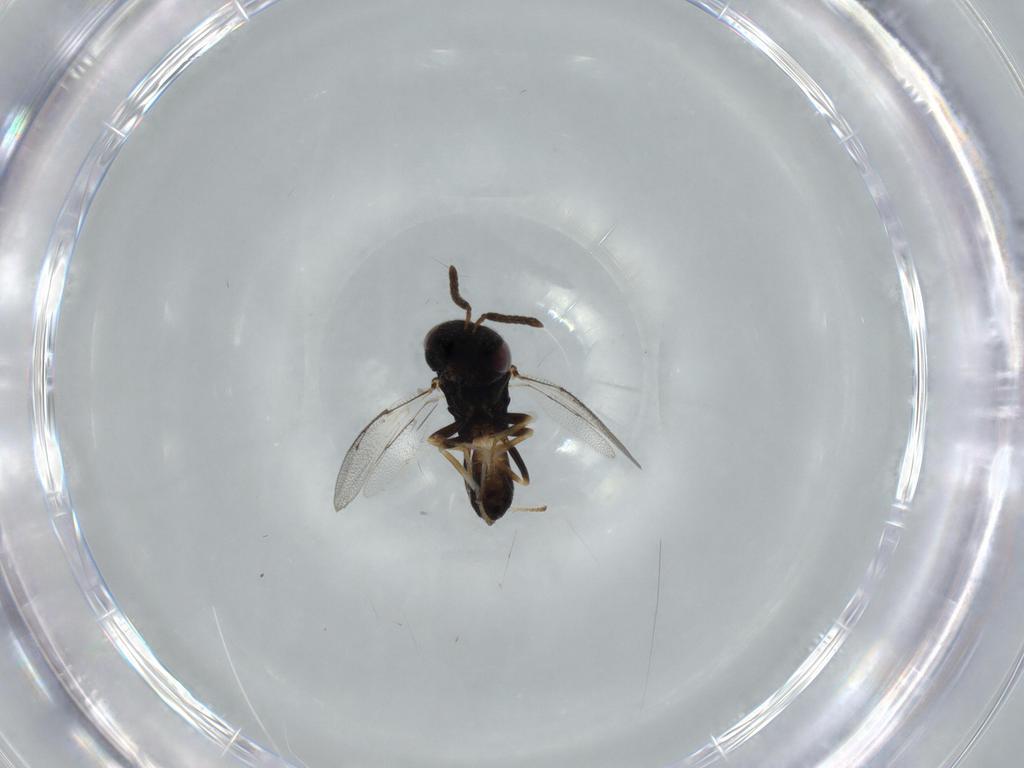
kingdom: Animalia
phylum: Arthropoda
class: Insecta
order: Hymenoptera
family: Pteromalidae
